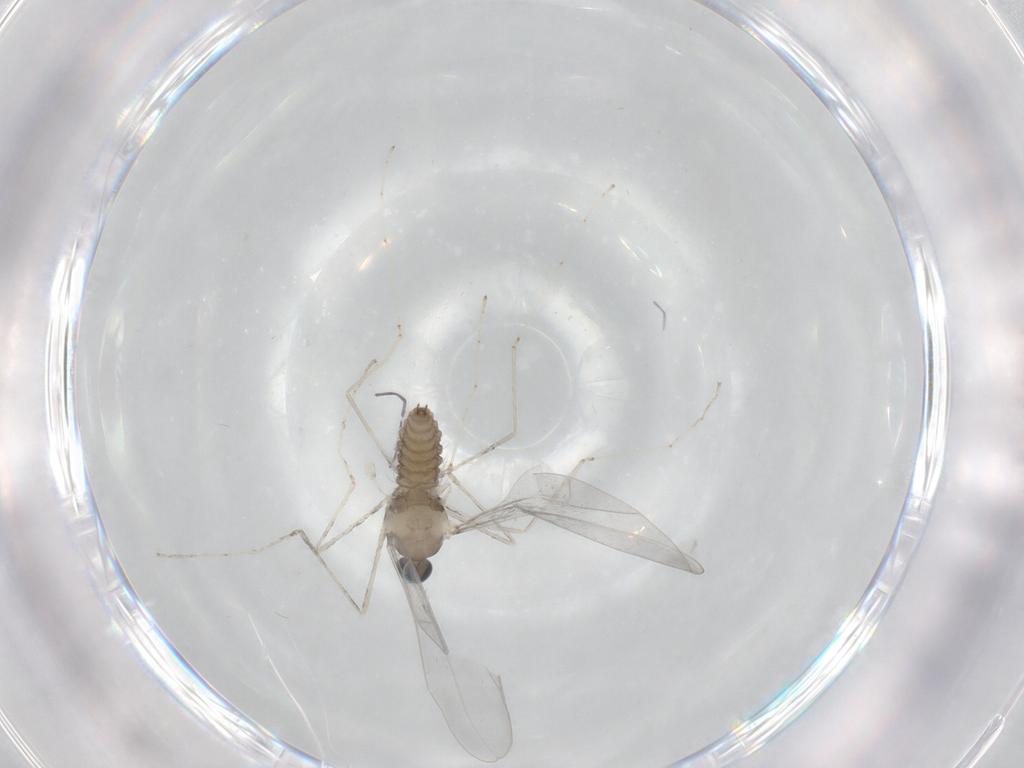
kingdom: Animalia
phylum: Arthropoda
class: Insecta
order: Diptera
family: Cecidomyiidae
